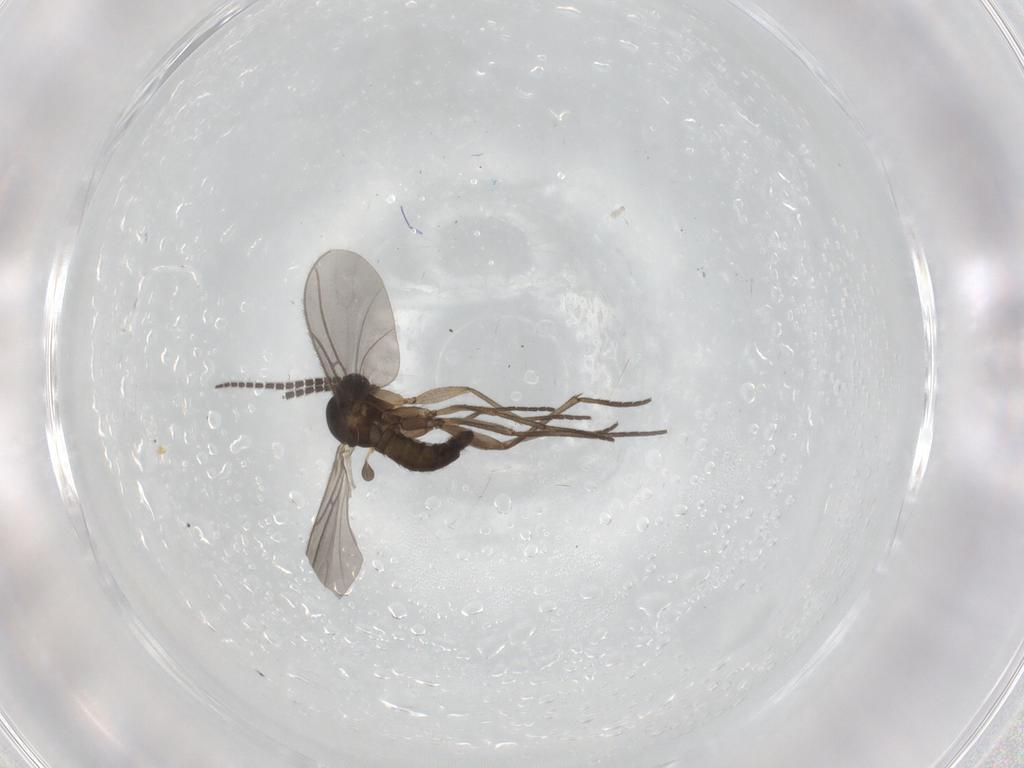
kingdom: Animalia
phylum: Arthropoda
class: Insecta
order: Diptera
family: Sciaridae
